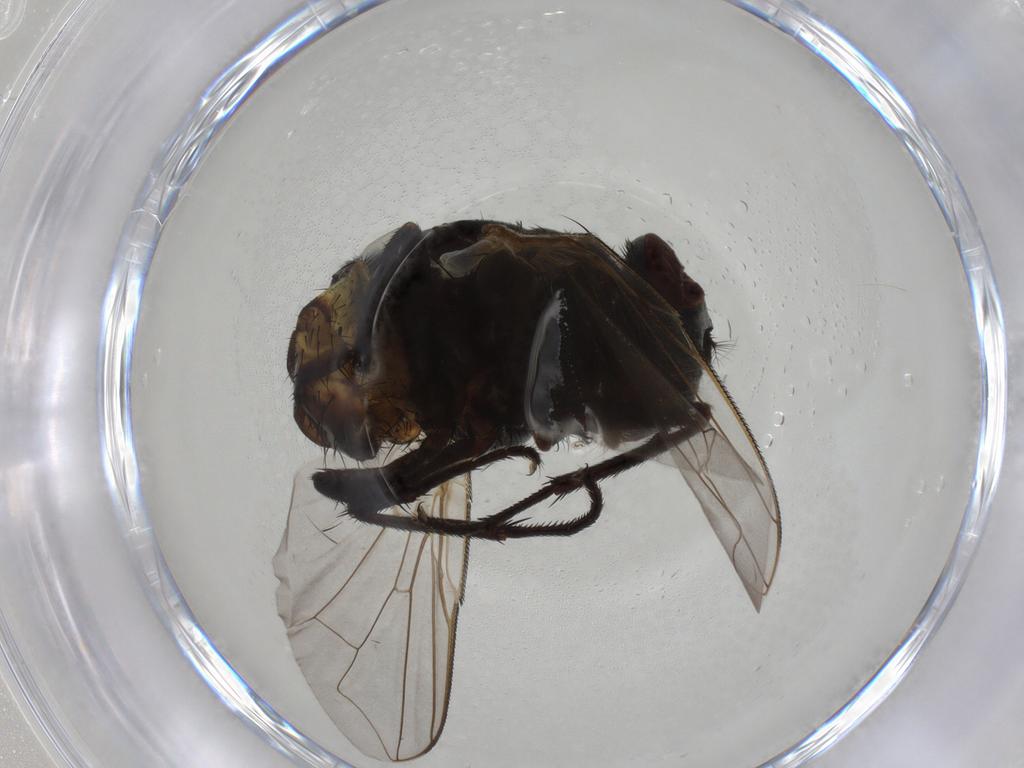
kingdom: Animalia
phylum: Arthropoda
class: Insecta
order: Diptera
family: Muscidae
